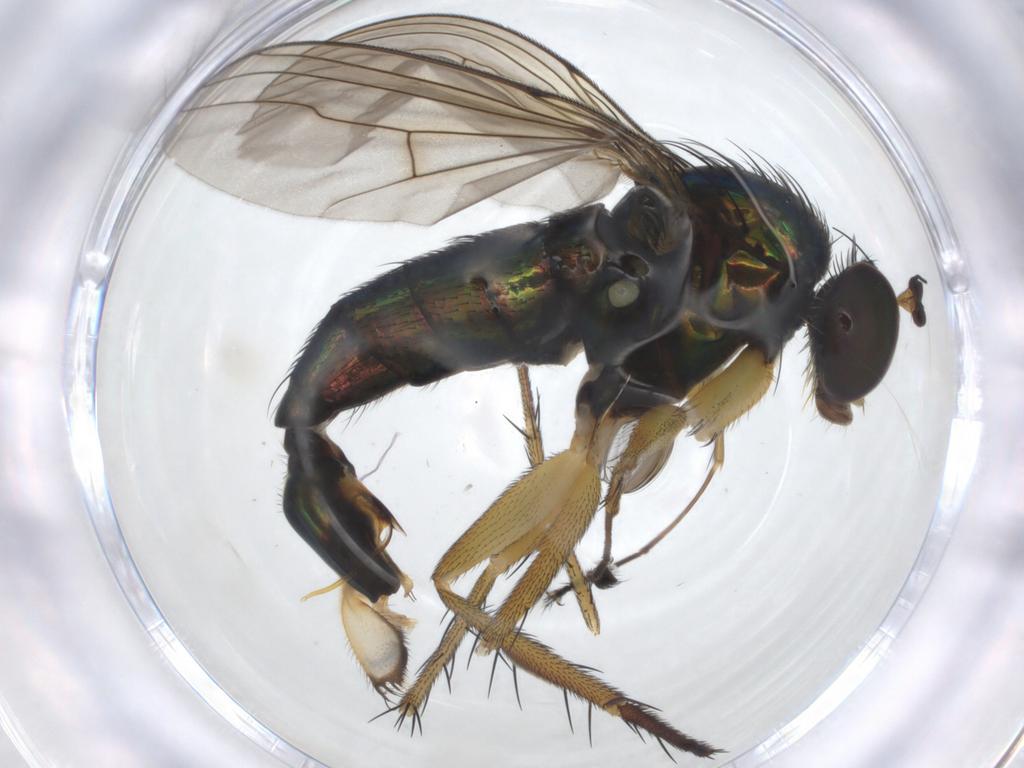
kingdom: Animalia
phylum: Arthropoda
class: Insecta
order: Diptera
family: Dolichopodidae
